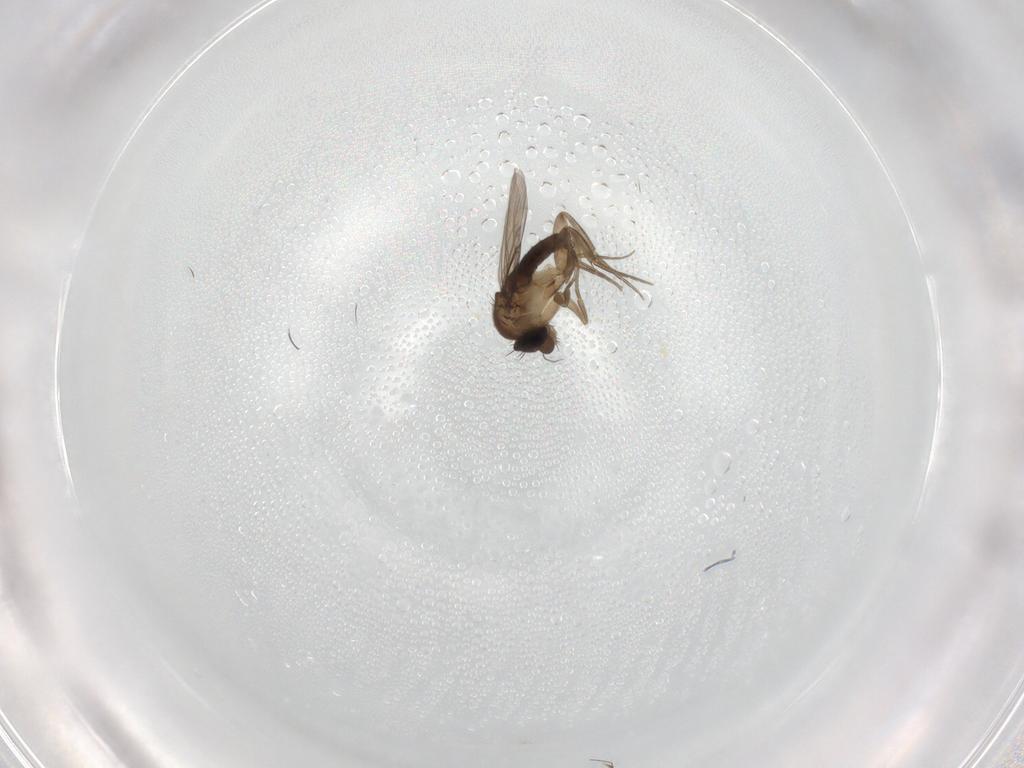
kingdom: Animalia
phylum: Arthropoda
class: Insecta
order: Diptera
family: Phoridae
